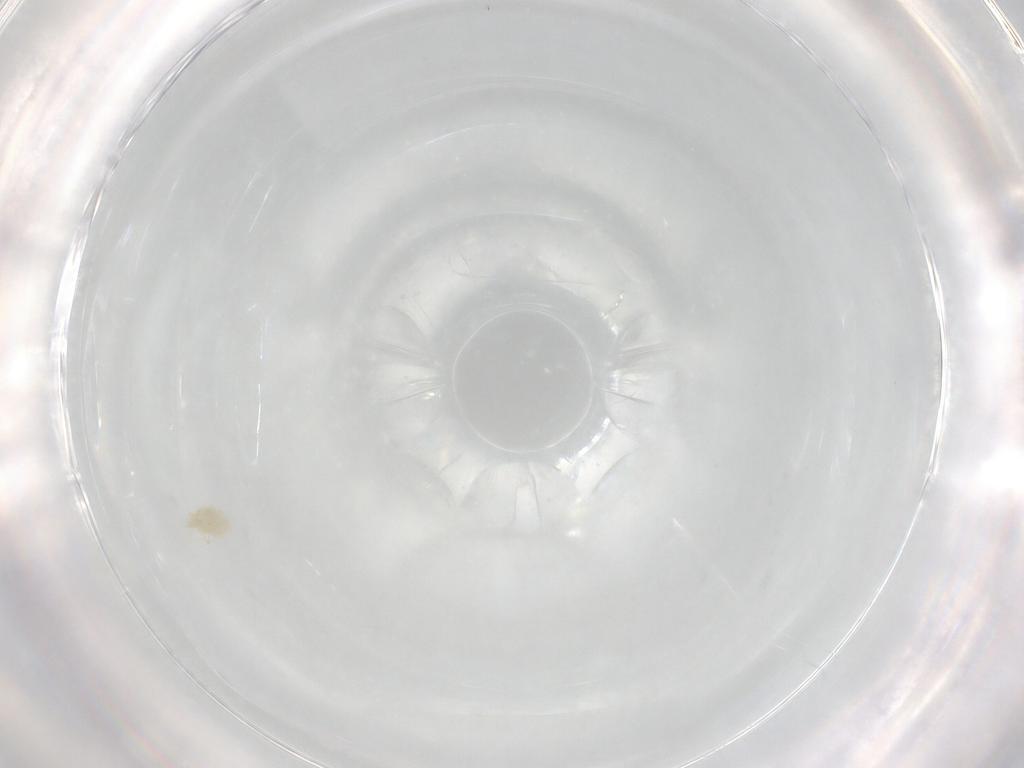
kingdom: Animalia
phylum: Arthropoda
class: Arachnida
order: Trombidiformes
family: Eupodidae
